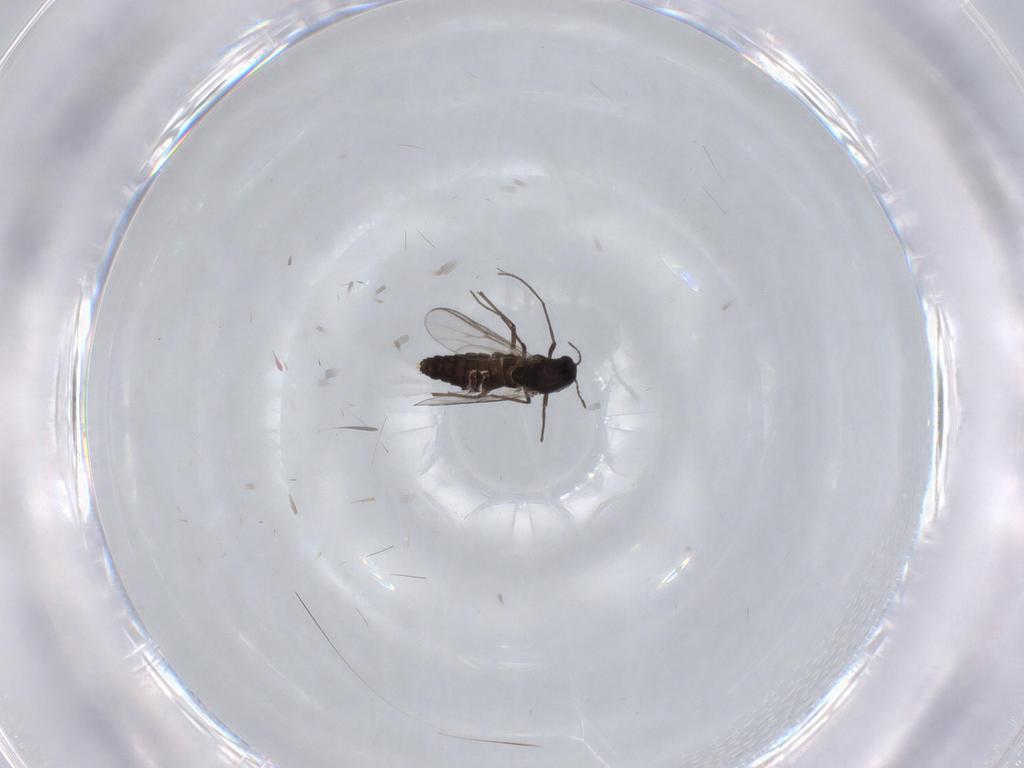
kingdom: Animalia
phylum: Arthropoda
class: Insecta
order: Diptera
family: Chironomidae
